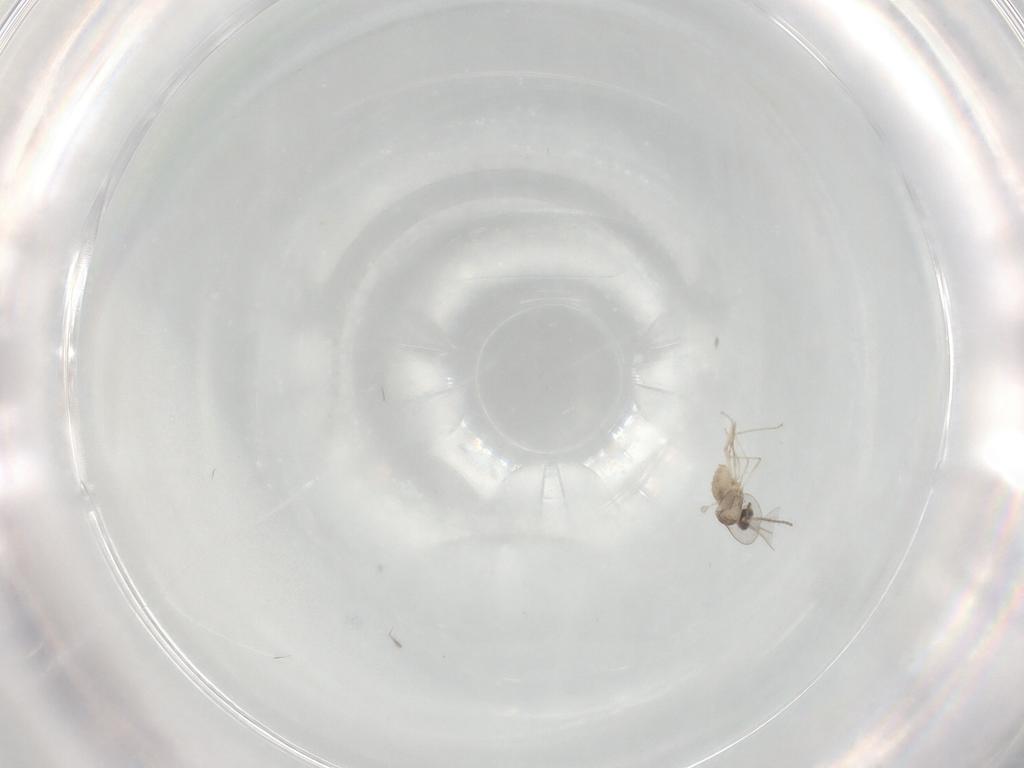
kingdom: Animalia
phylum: Arthropoda
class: Insecta
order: Diptera
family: Cecidomyiidae
